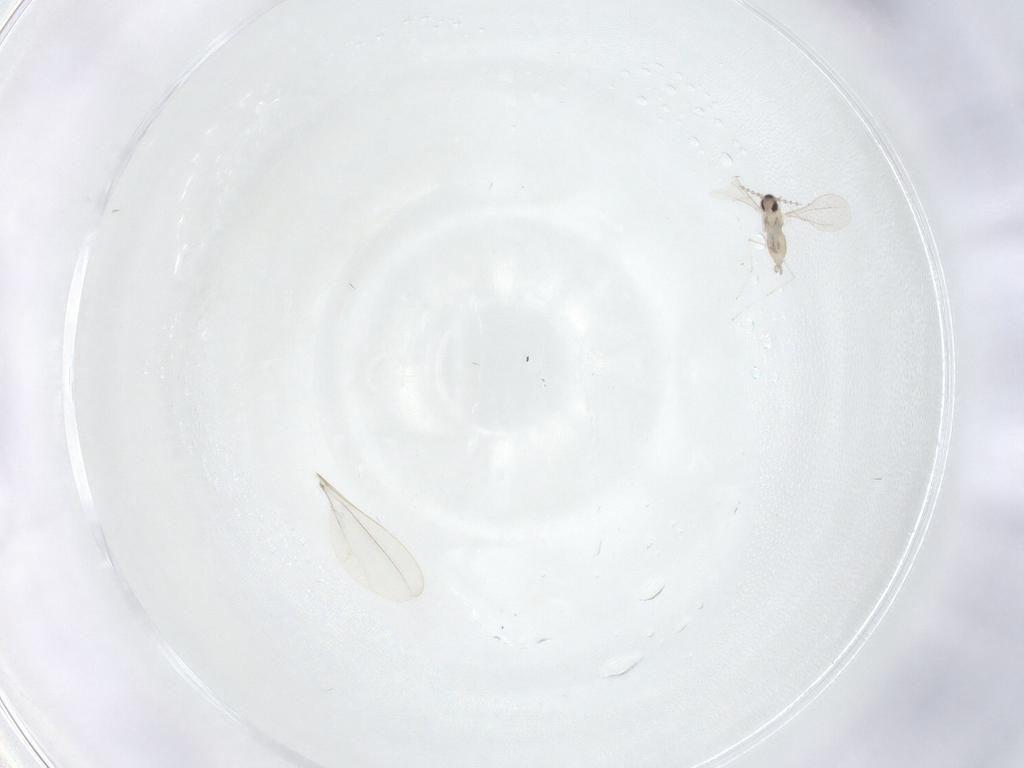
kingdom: Animalia
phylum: Arthropoda
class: Insecta
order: Diptera
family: Cecidomyiidae
